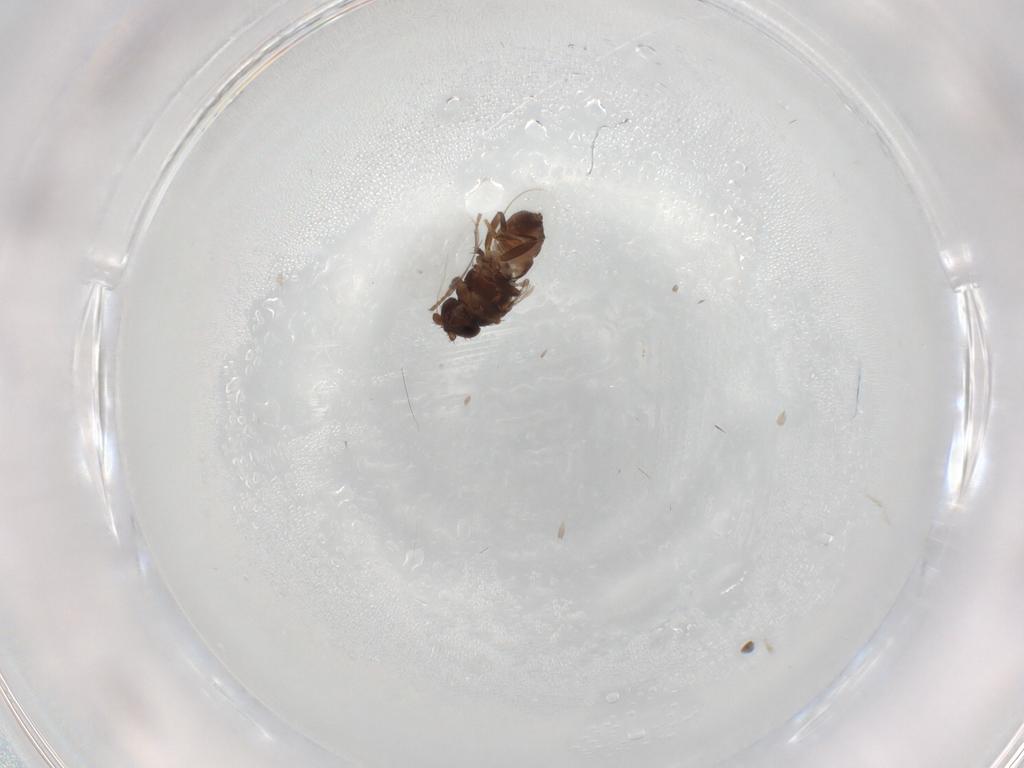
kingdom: Animalia
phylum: Arthropoda
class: Insecta
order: Diptera
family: Sphaeroceridae
